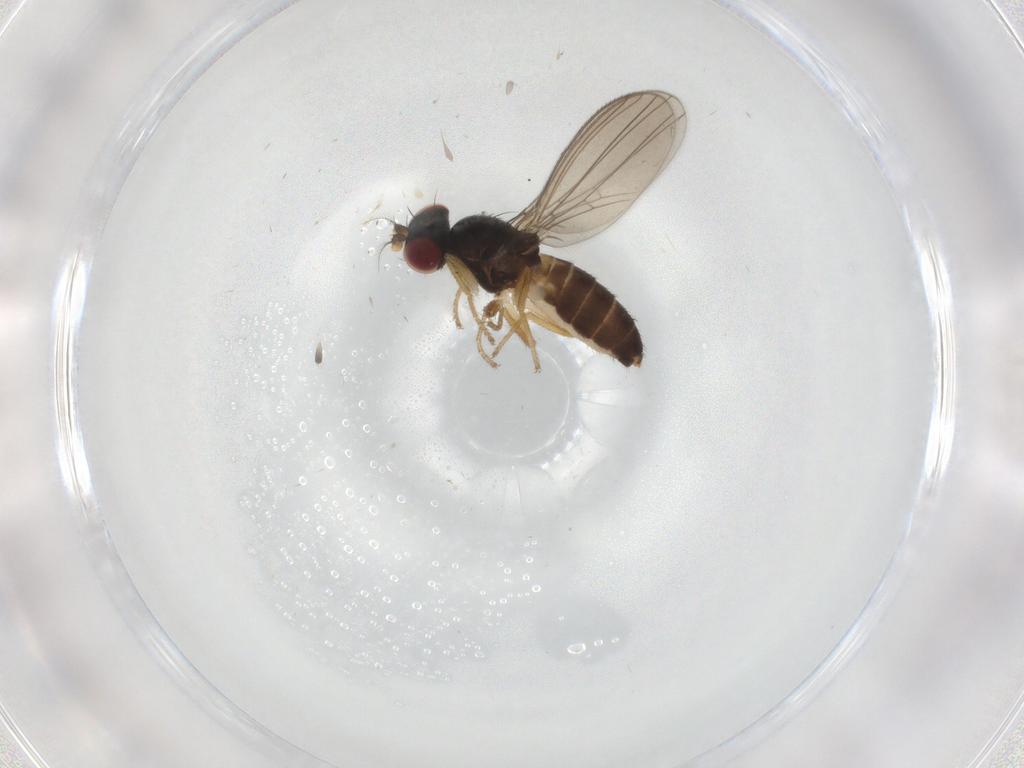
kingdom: Animalia
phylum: Arthropoda
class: Insecta
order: Diptera
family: Anthomyzidae
